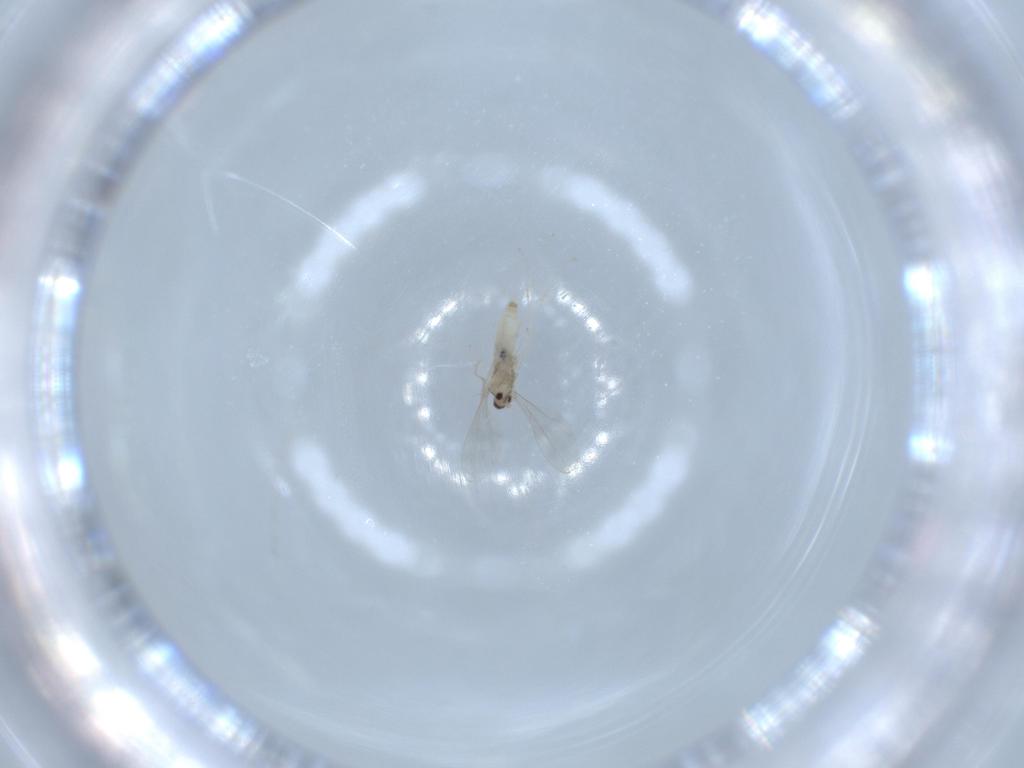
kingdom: Animalia
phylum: Arthropoda
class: Insecta
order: Diptera
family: Cecidomyiidae
